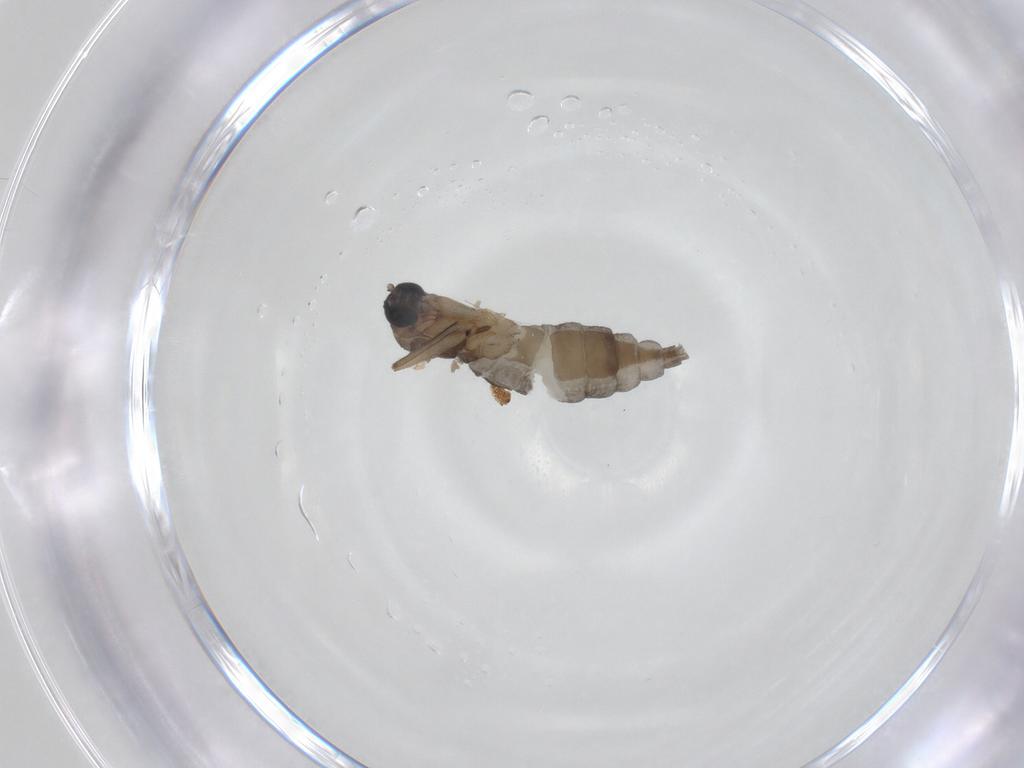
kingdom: Animalia
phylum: Arthropoda
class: Insecta
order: Diptera
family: Sciaridae
